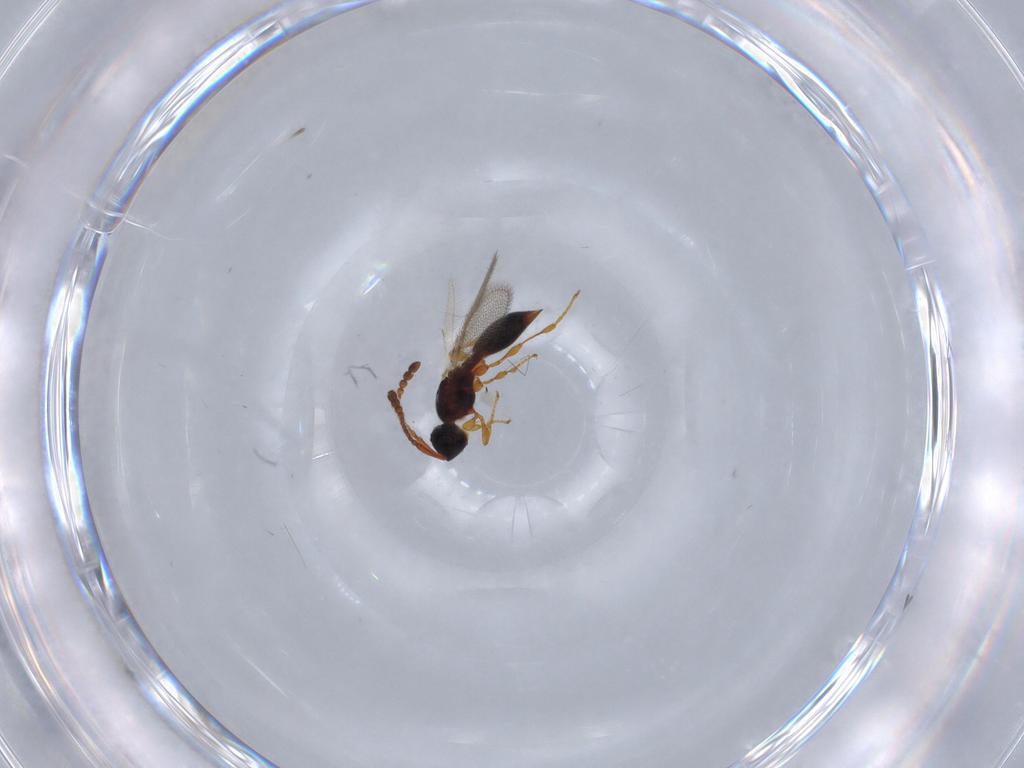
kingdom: Animalia
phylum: Arthropoda
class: Insecta
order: Hymenoptera
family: Diapriidae
